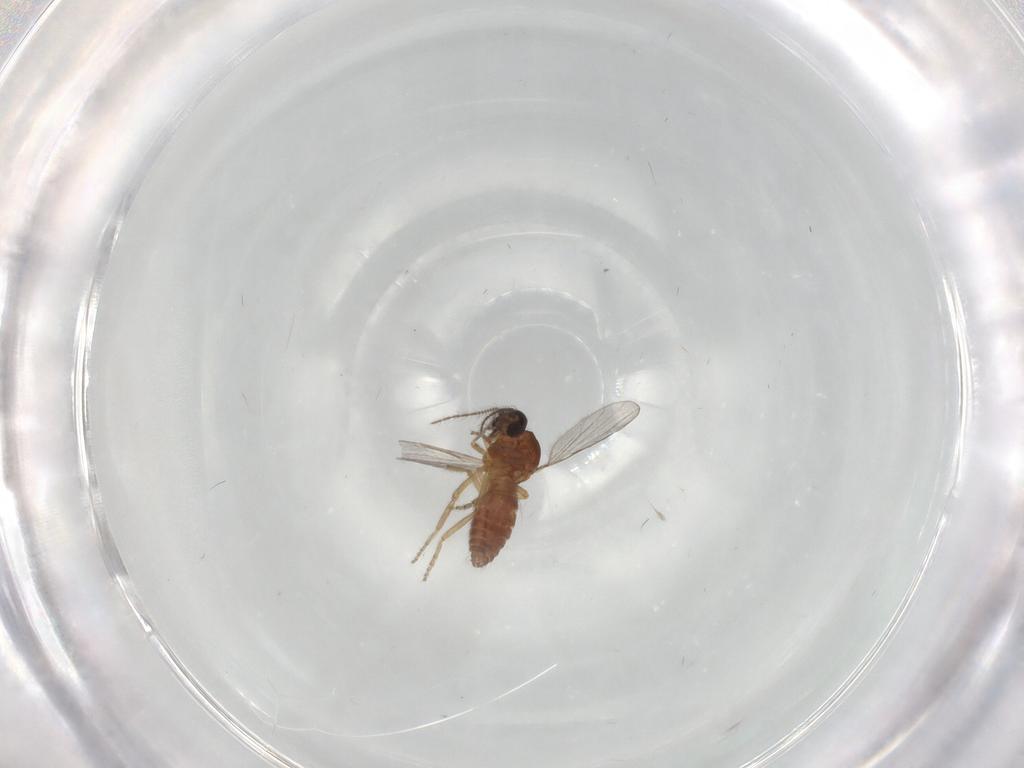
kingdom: Animalia
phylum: Arthropoda
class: Insecta
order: Diptera
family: Ceratopogonidae
